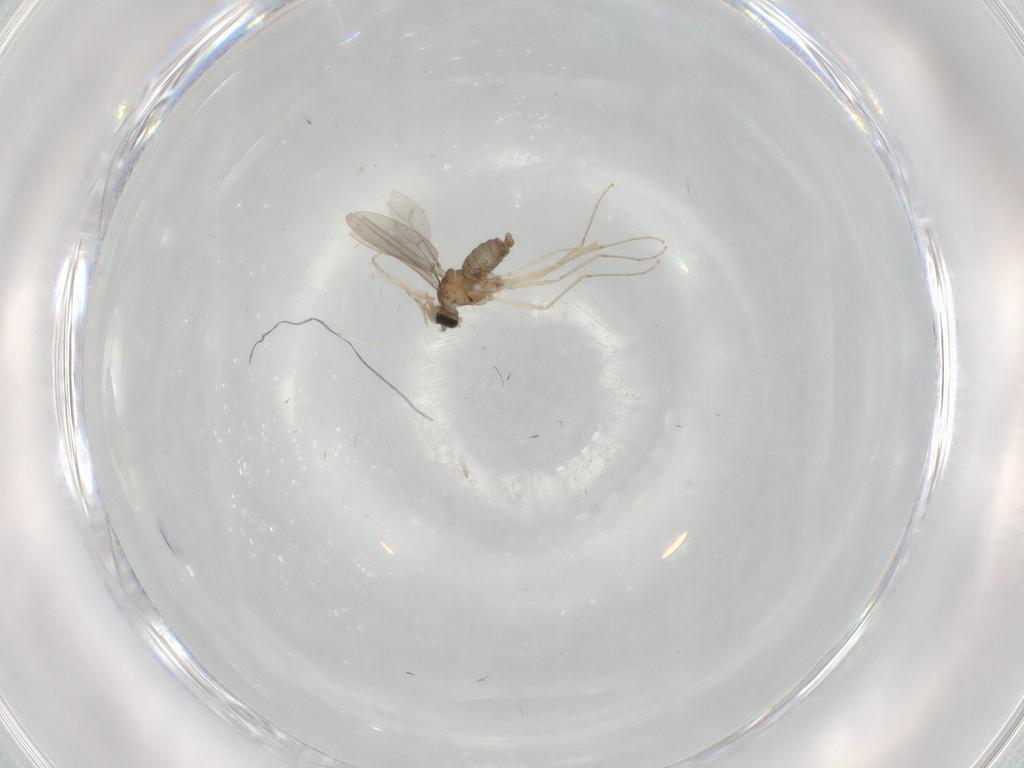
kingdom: Animalia
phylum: Arthropoda
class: Insecta
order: Diptera
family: Cecidomyiidae
